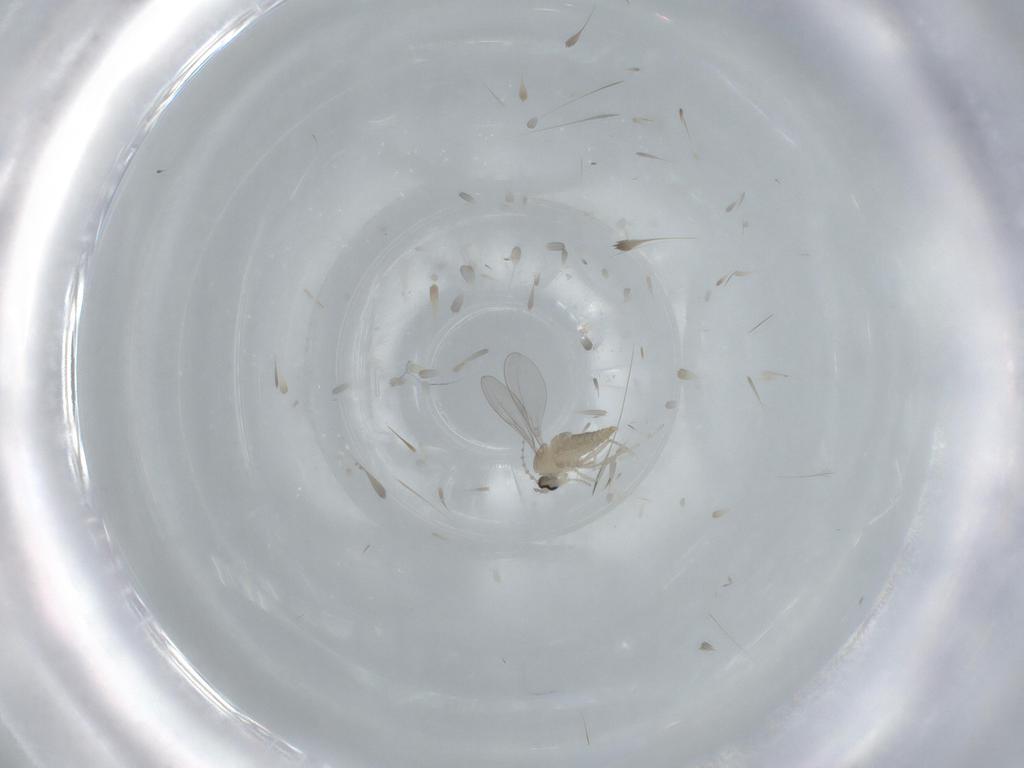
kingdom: Animalia
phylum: Arthropoda
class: Insecta
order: Diptera
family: Cecidomyiidae
